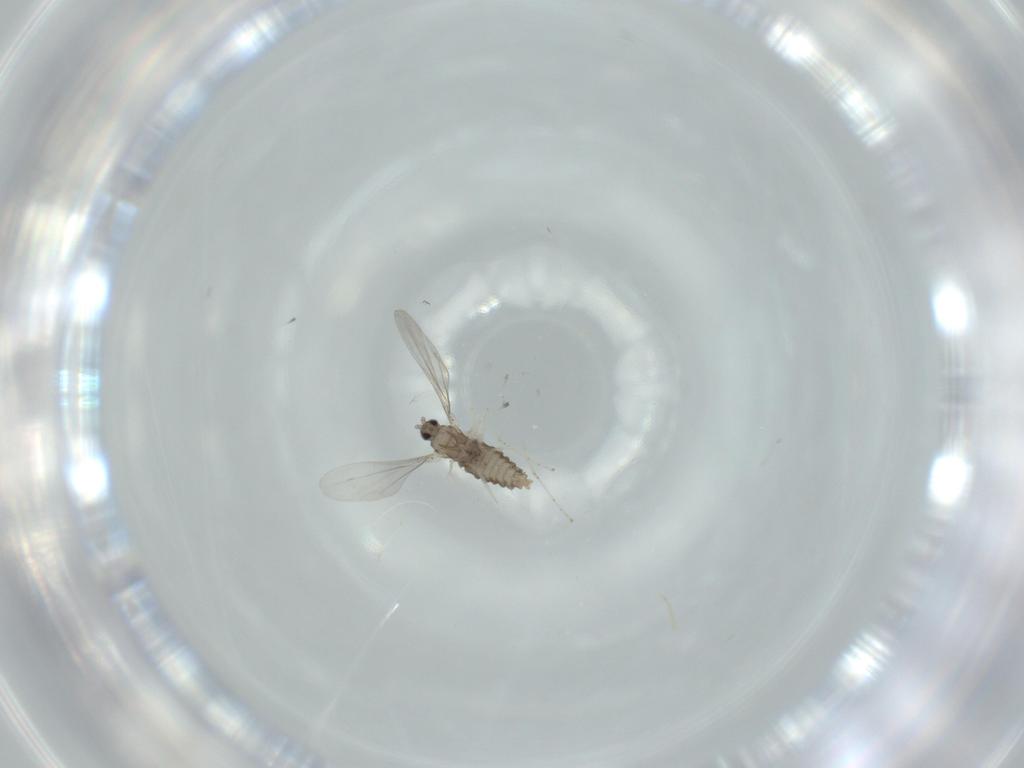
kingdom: Animalia
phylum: Arthropoda
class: Insecta
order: Diptera
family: Cecidomyiidae
